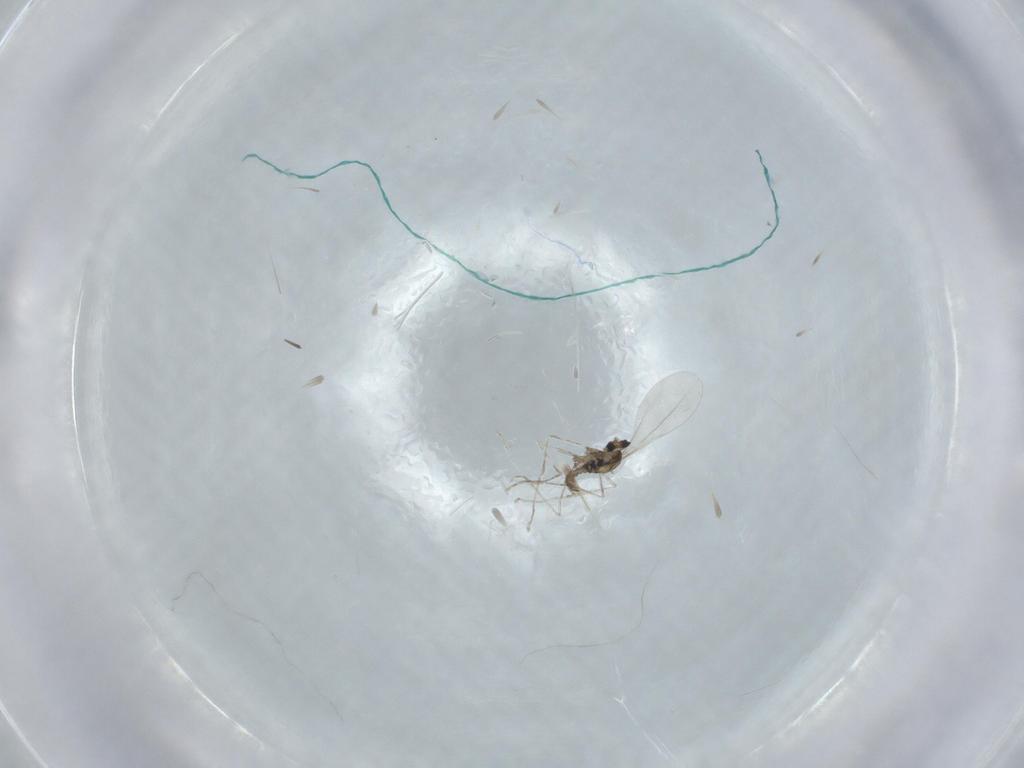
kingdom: Animalia
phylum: Arthropoda
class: Insecta
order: Diptera
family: Cecidomyiidae
